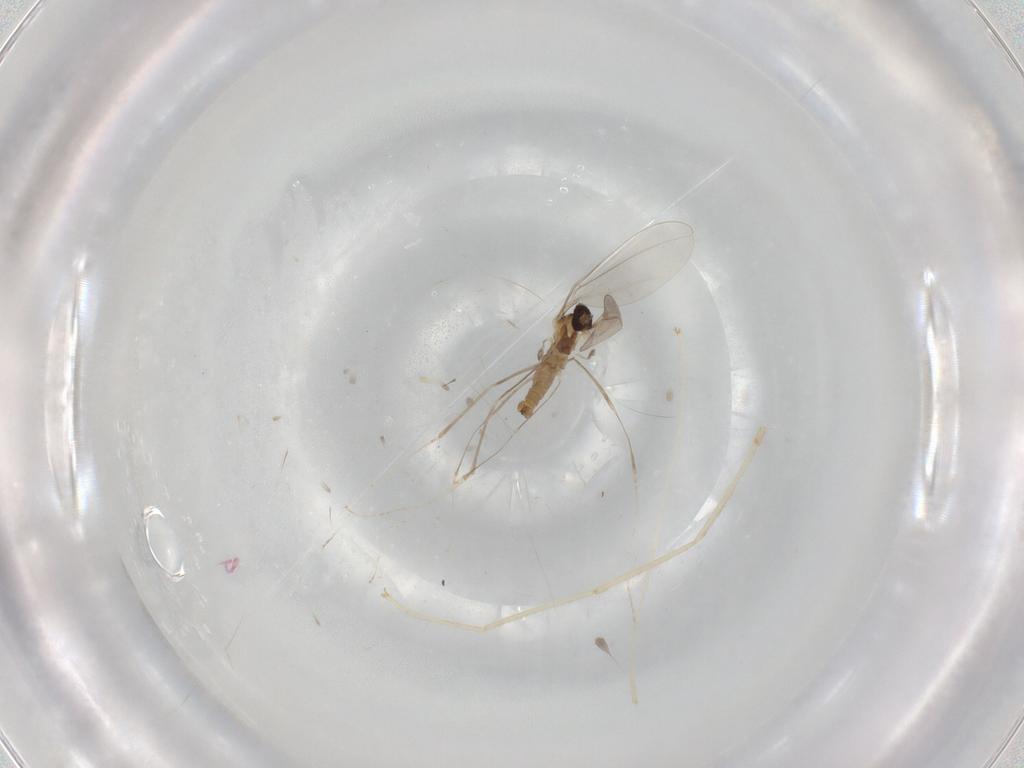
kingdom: Animalia
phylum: Arthropoda
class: Insecta
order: Diptera
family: Cecidomyiidae
